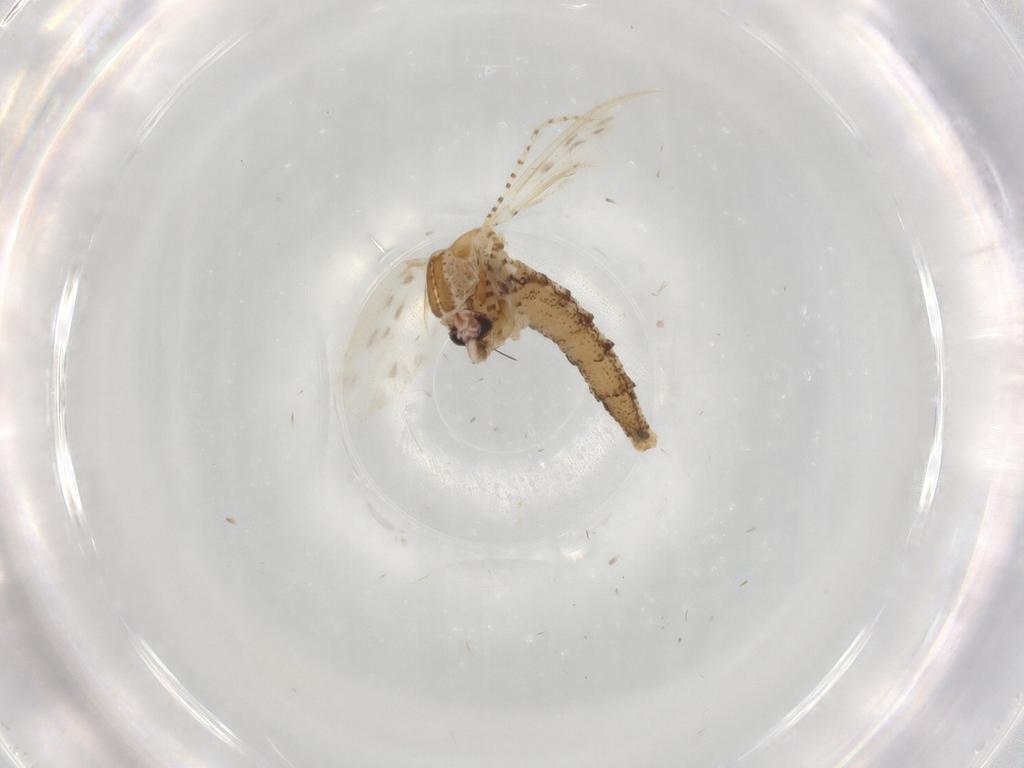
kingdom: Animalia
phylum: Arthropoda
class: Insecta
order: Diptera
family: Chaoboridae
